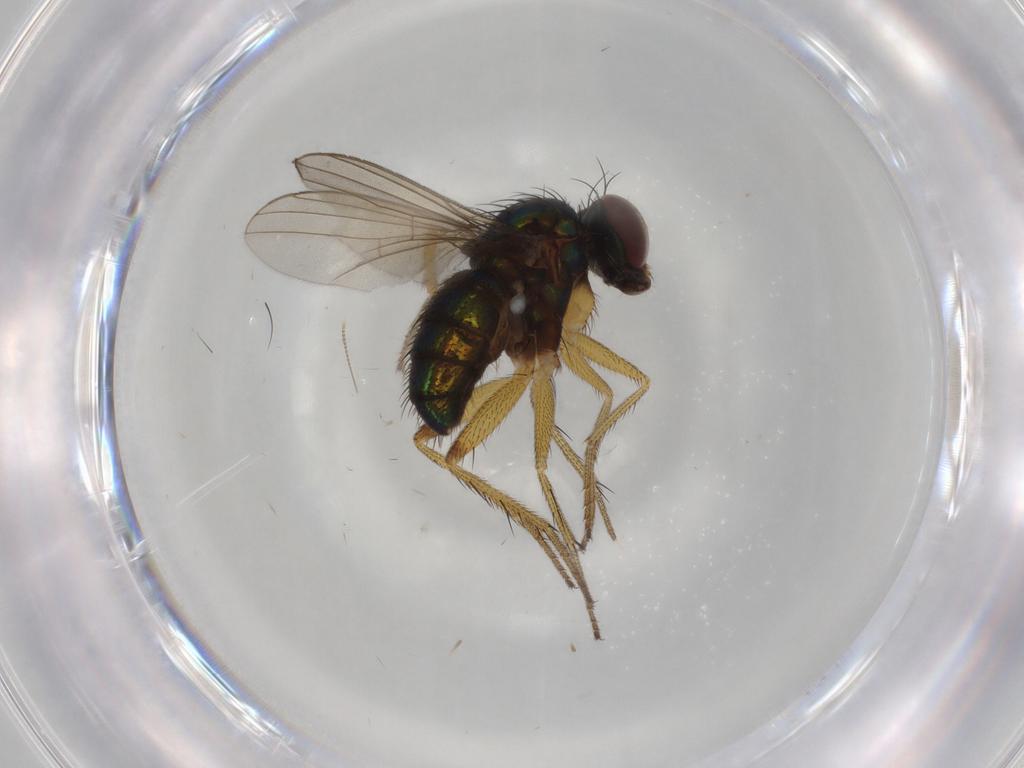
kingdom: Animalia
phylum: Arthropoda
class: Insecta
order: Diptera
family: Dolichopodidae
